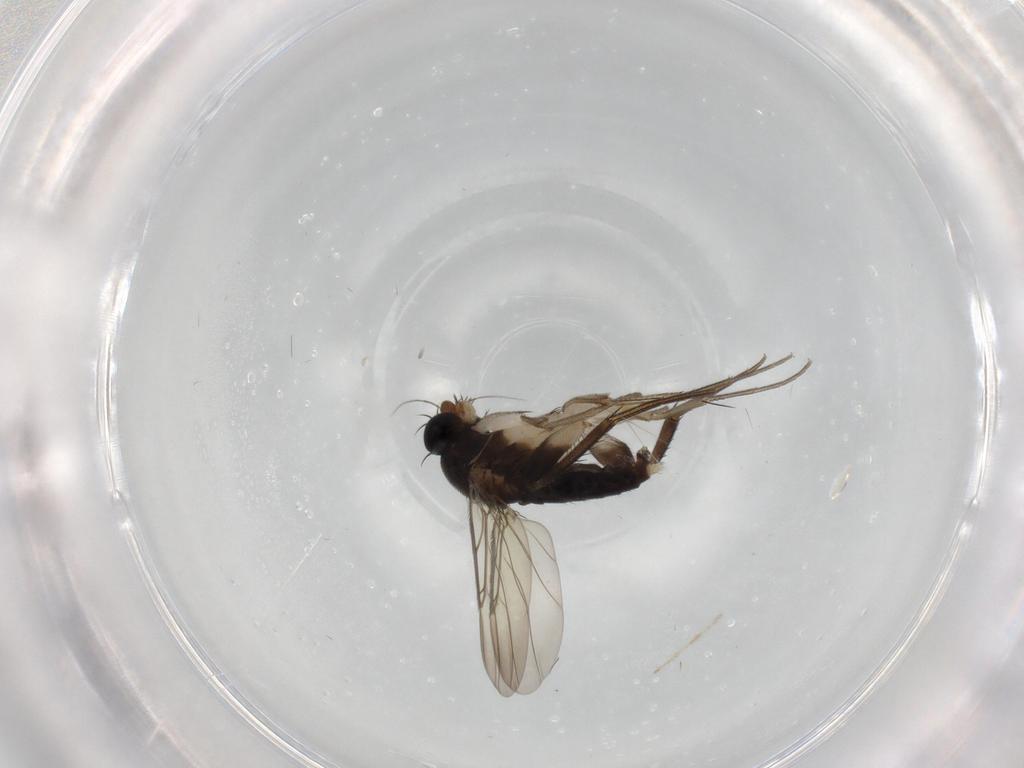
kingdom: Animalia
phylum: Arthropoda
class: Insecta
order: Diptera
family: Phoridae
